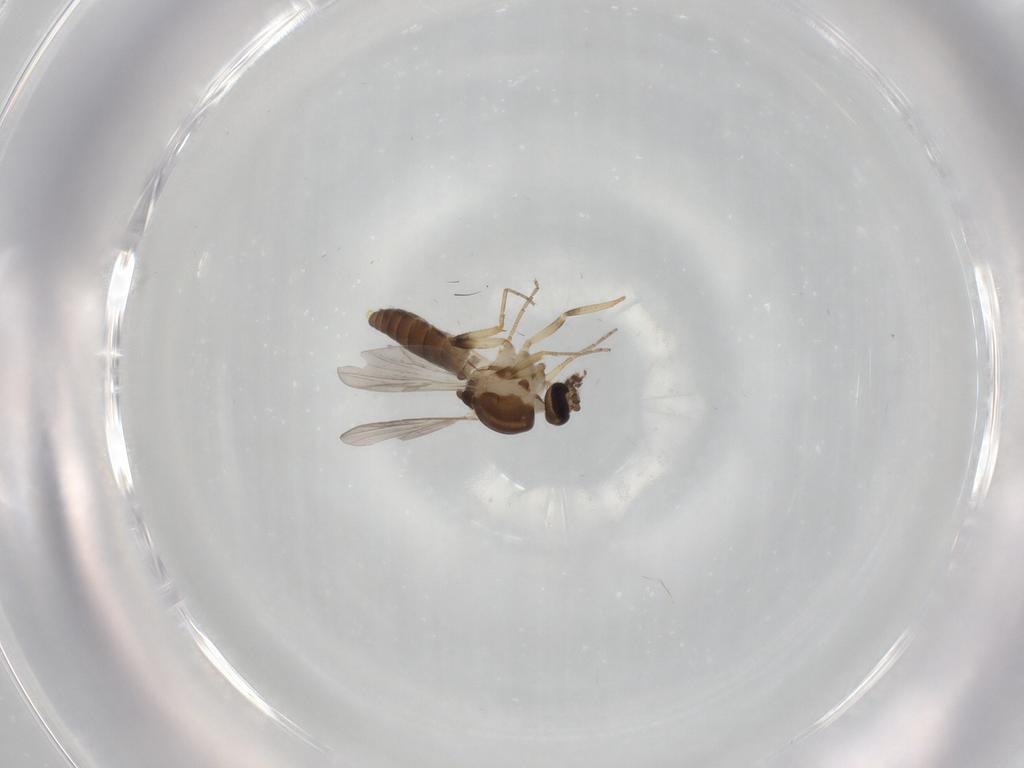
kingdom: Animalia
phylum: Arthropoda
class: Insecta
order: Diptera
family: Ceratopogonidae
